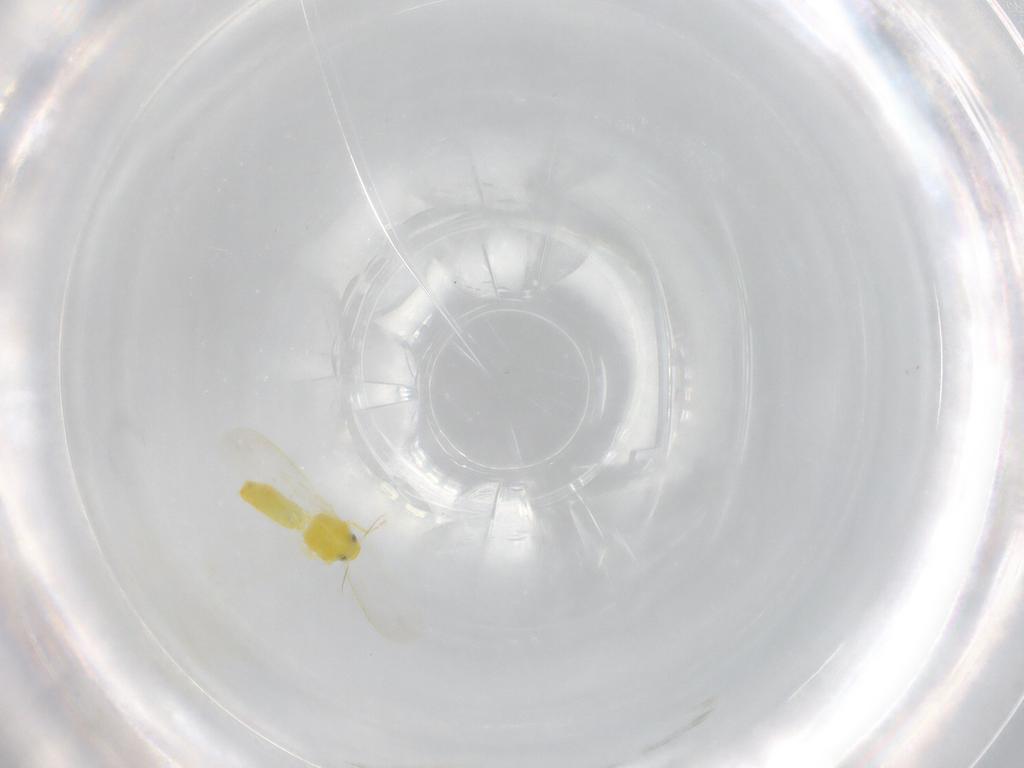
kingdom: Animalia
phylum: Arthropoda
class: Insecta
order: Hemiptera
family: Aleyrodidae
